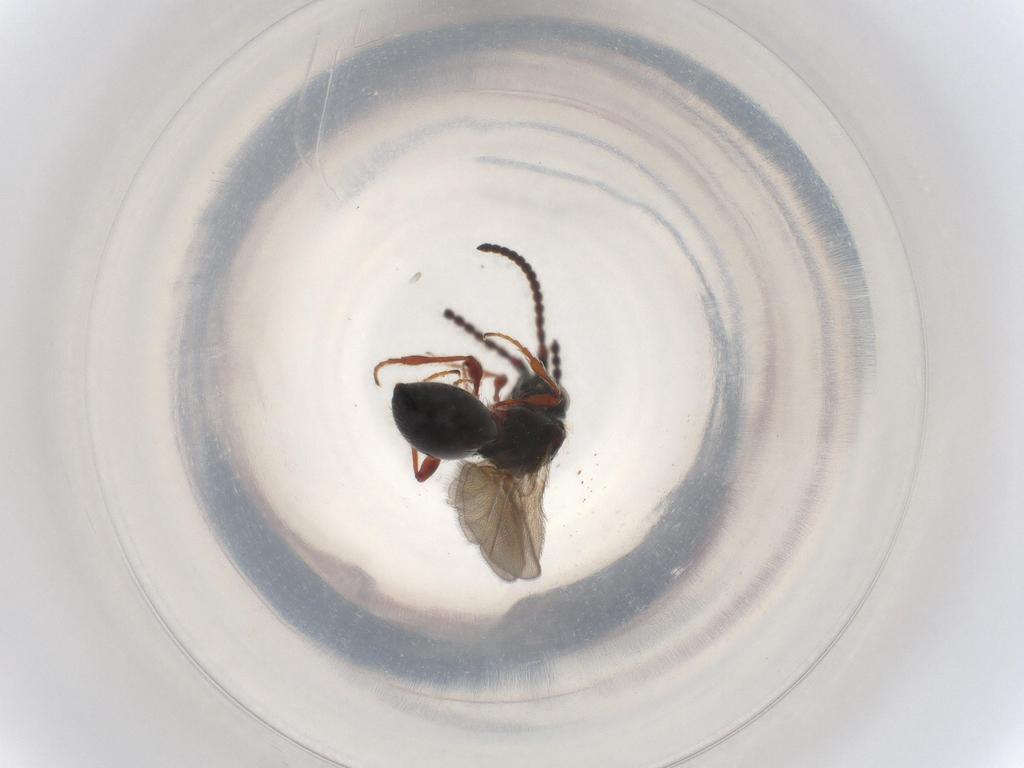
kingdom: Animalia
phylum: Arthropoda
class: Insecta
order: Hymenoptera
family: Diapriidae
